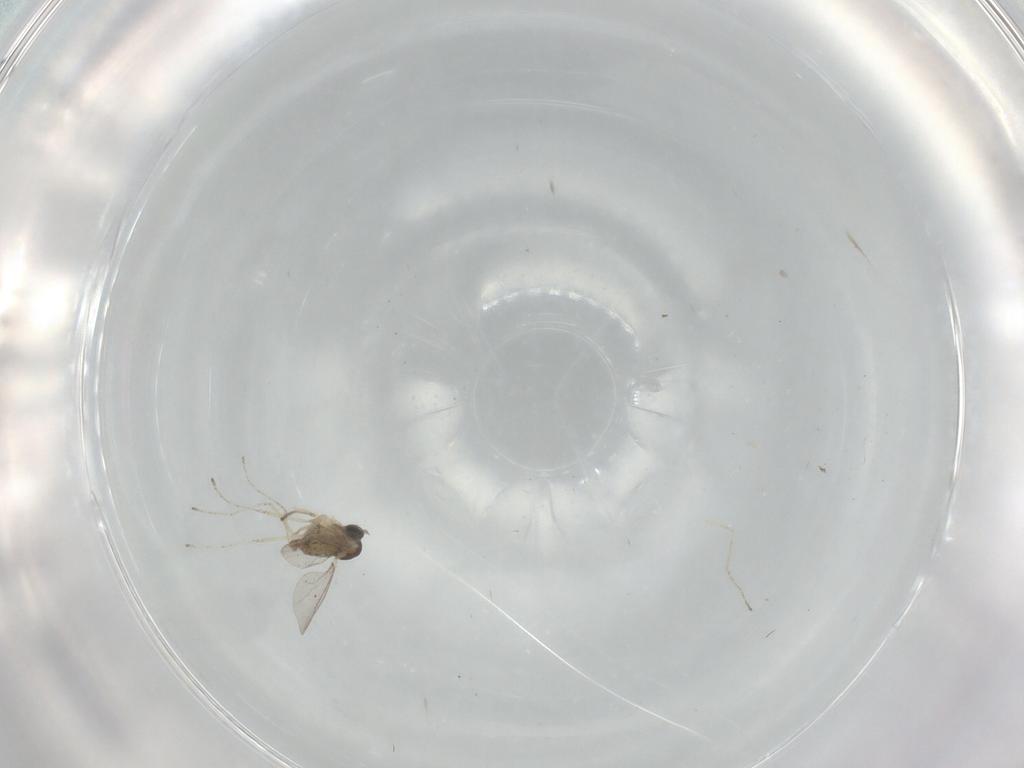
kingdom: Animalia
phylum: Arthropoda
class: Insecta
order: Diptera
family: Cecidomyiidae
